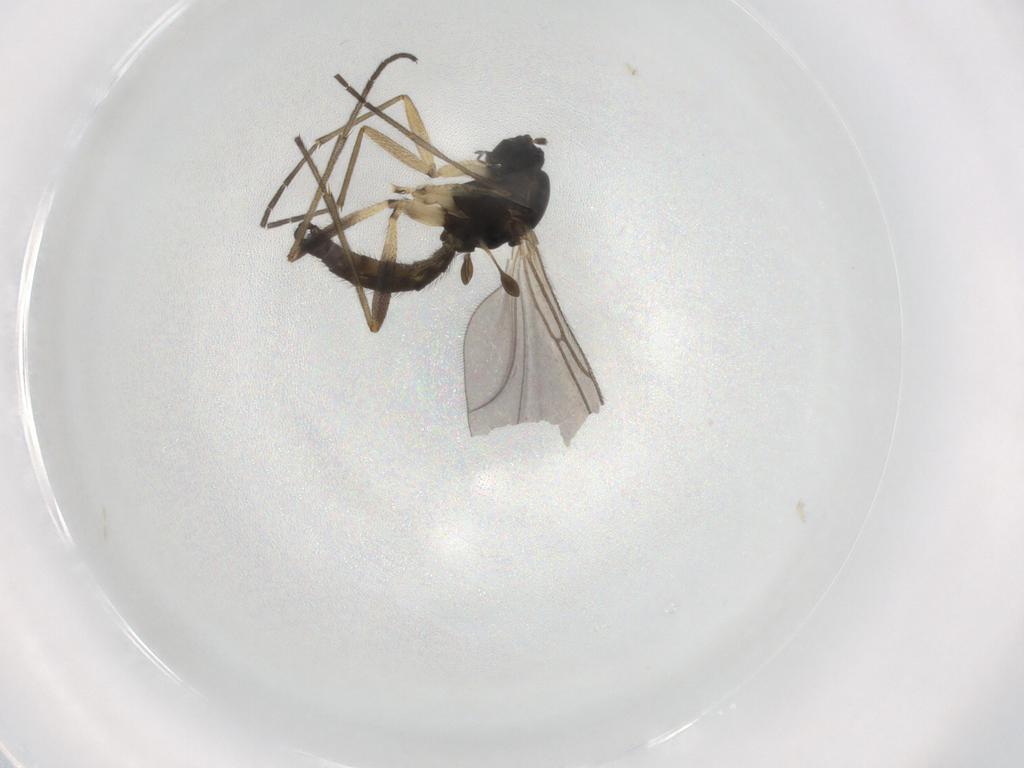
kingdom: Animalia
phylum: Arthropoda
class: Insecta
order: Diptera
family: Sciaridae
